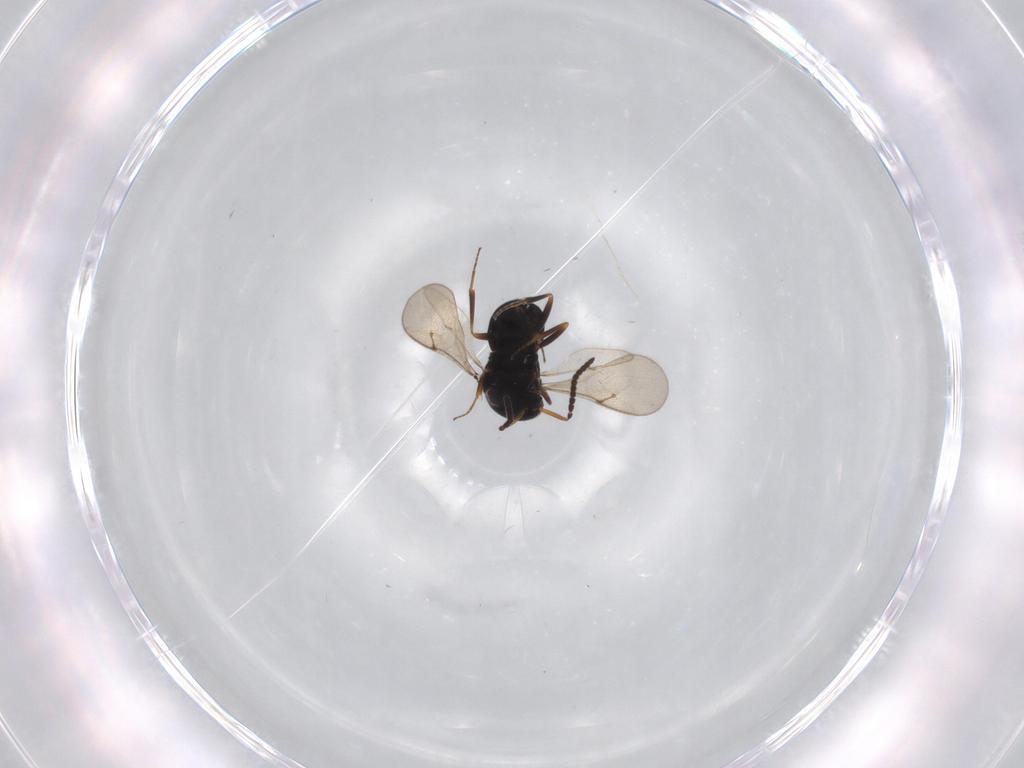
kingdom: Animalia
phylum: Arthropoda
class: Insecta
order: Hymenoptera
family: Scelionidae
